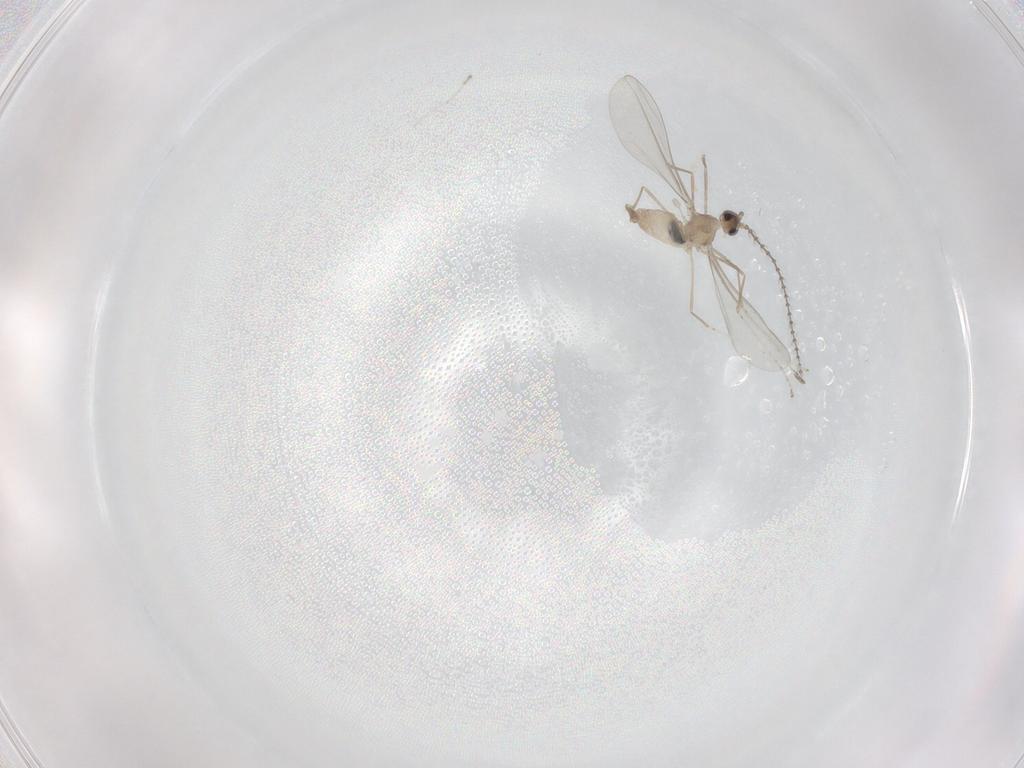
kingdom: Animalia
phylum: Arthropoda
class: Insecta
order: Diptera
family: Cecidomyiidae
